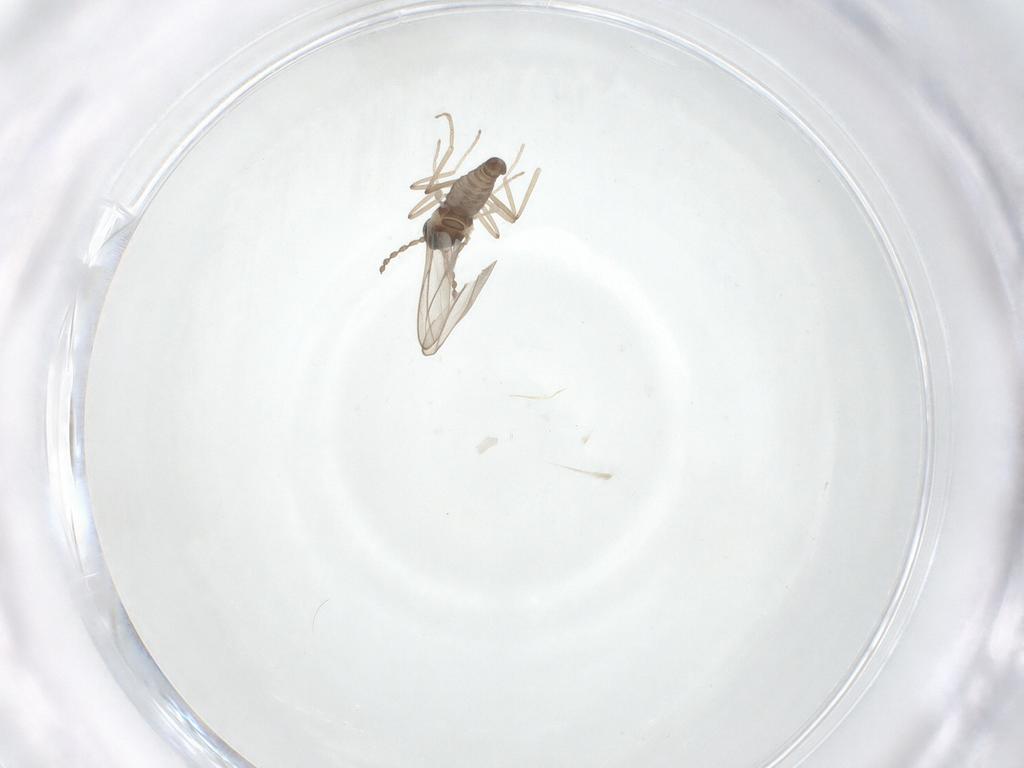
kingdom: Animalia
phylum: Arthropoda
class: Insecta
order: Diptera
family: Cecidomyiidae
